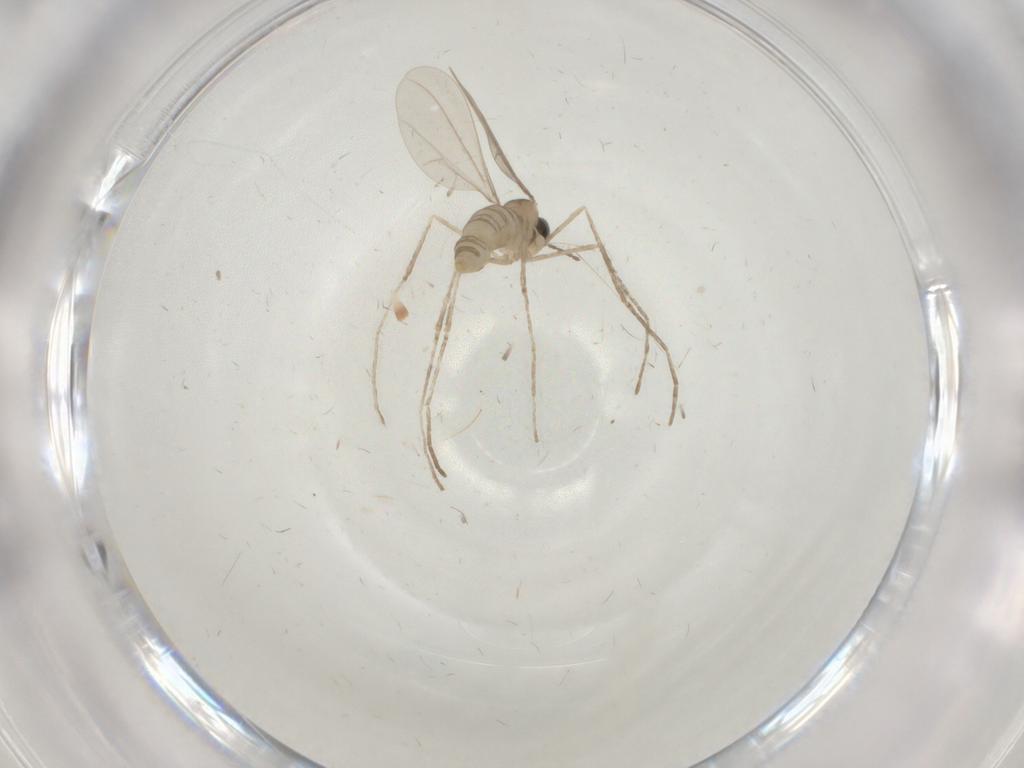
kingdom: Animalia
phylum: Arthropoda
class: Insecta
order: Diptera
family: Cecidomyiidae
